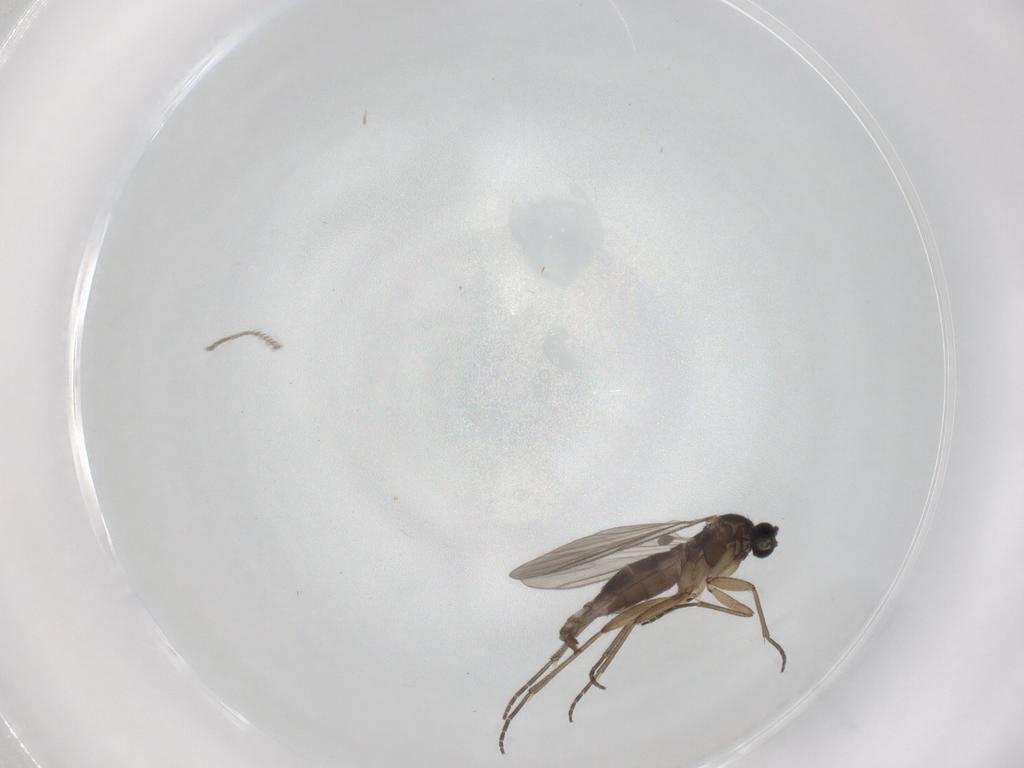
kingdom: Animalia
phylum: Arthropoda
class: Insecta
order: Diptera
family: Cecidomyiidae
